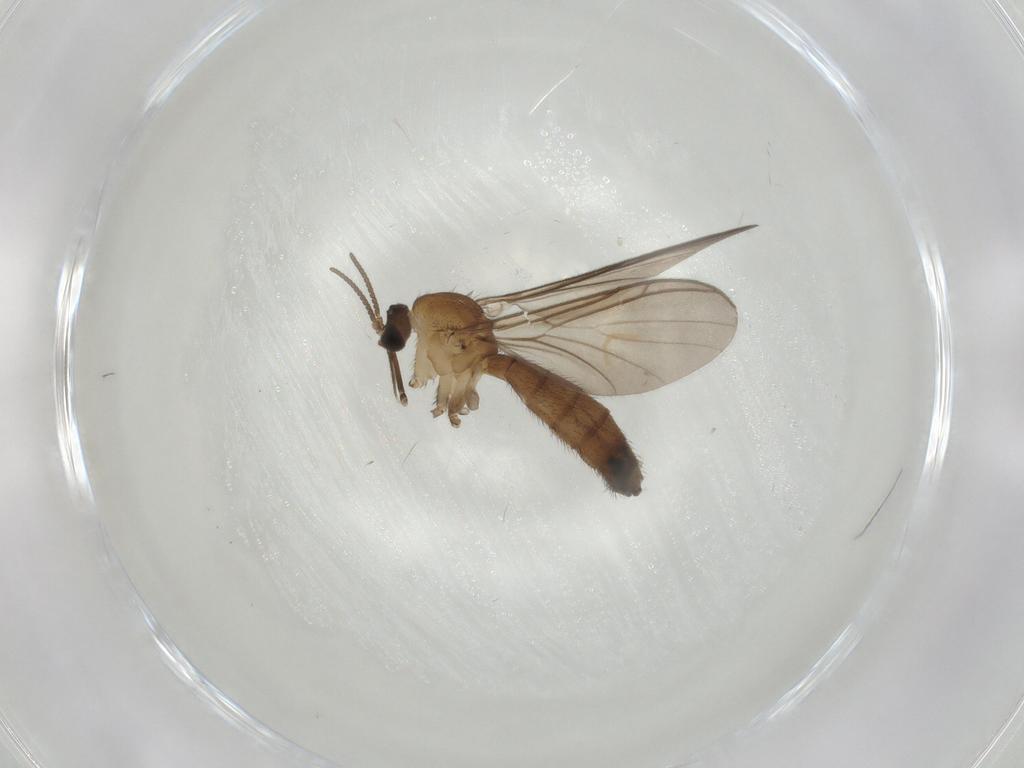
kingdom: Animalia
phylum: Arthropoda
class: Insecta
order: Diptera
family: Keroplatidae
